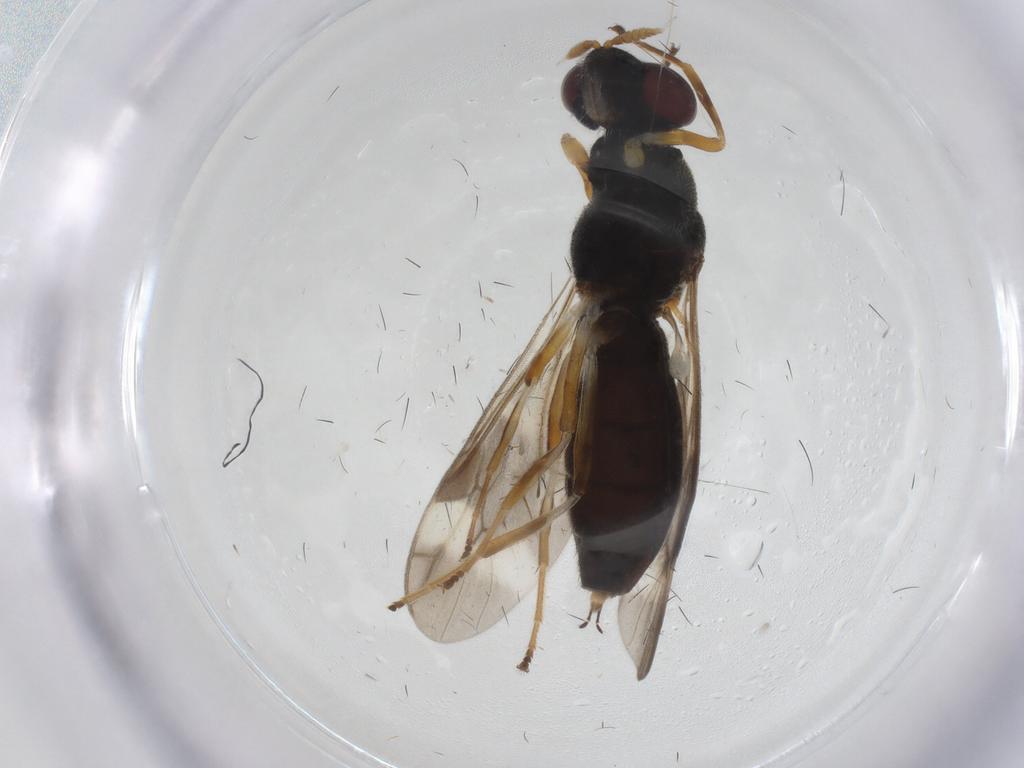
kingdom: Animalia
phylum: Arthropoda
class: Insecta
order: Diptera
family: Stratiomyidae
